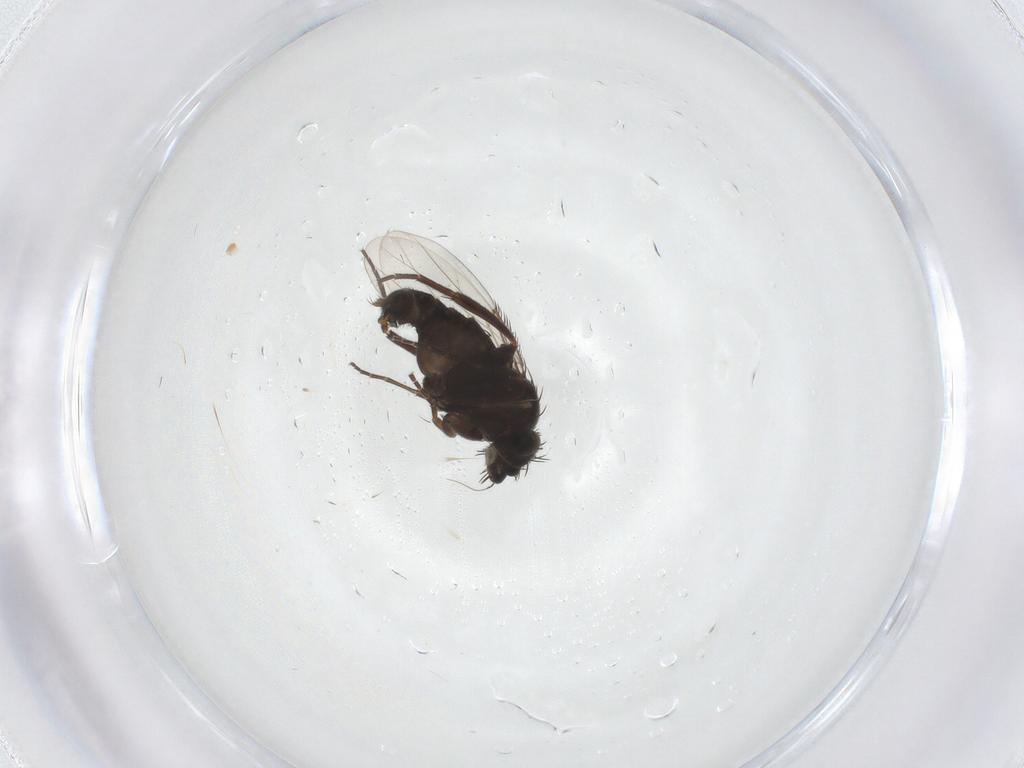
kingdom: Animalia
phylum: Arthropoda
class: Insecta
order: Diptera
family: Phoridae
